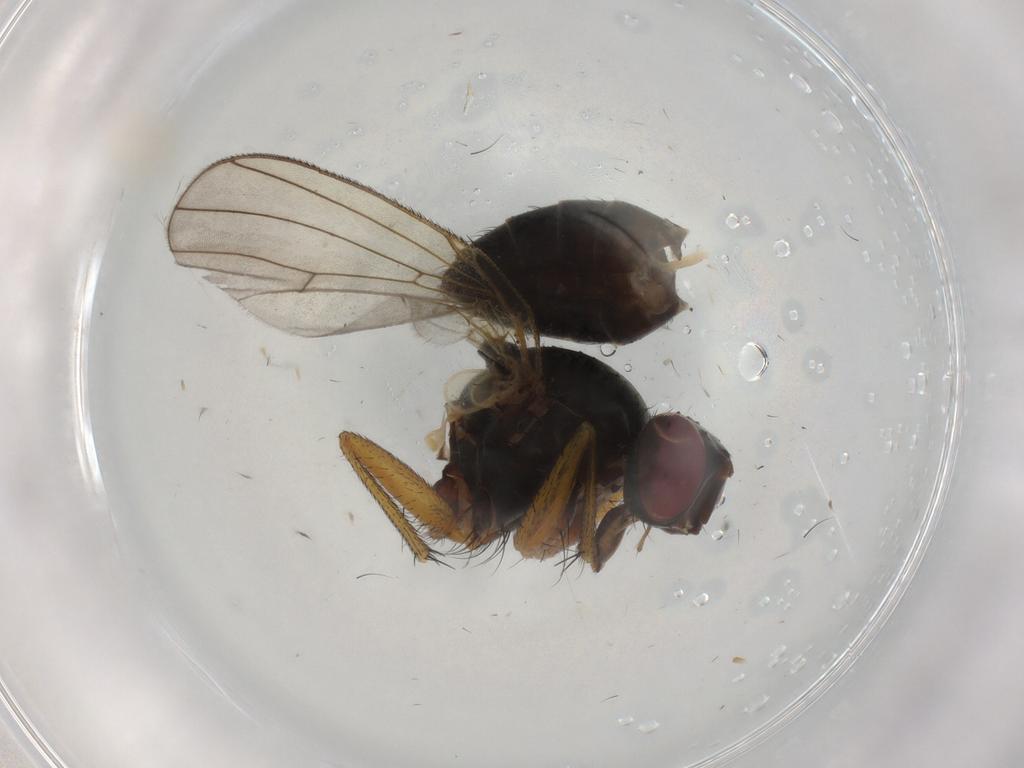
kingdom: Animalia
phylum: Arthropoda
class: Insecta
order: Diptera
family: Muscidae
